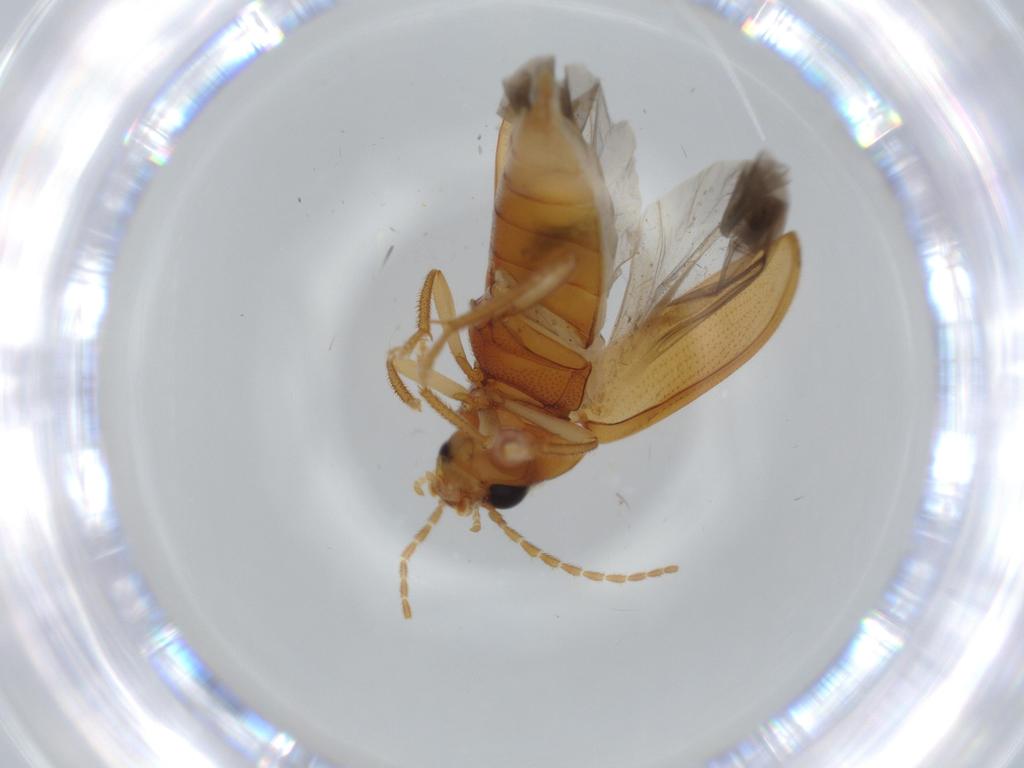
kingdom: Animalia
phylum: Arthropoda
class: Insecta
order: Coleoptera
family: Ptilodactylidae
